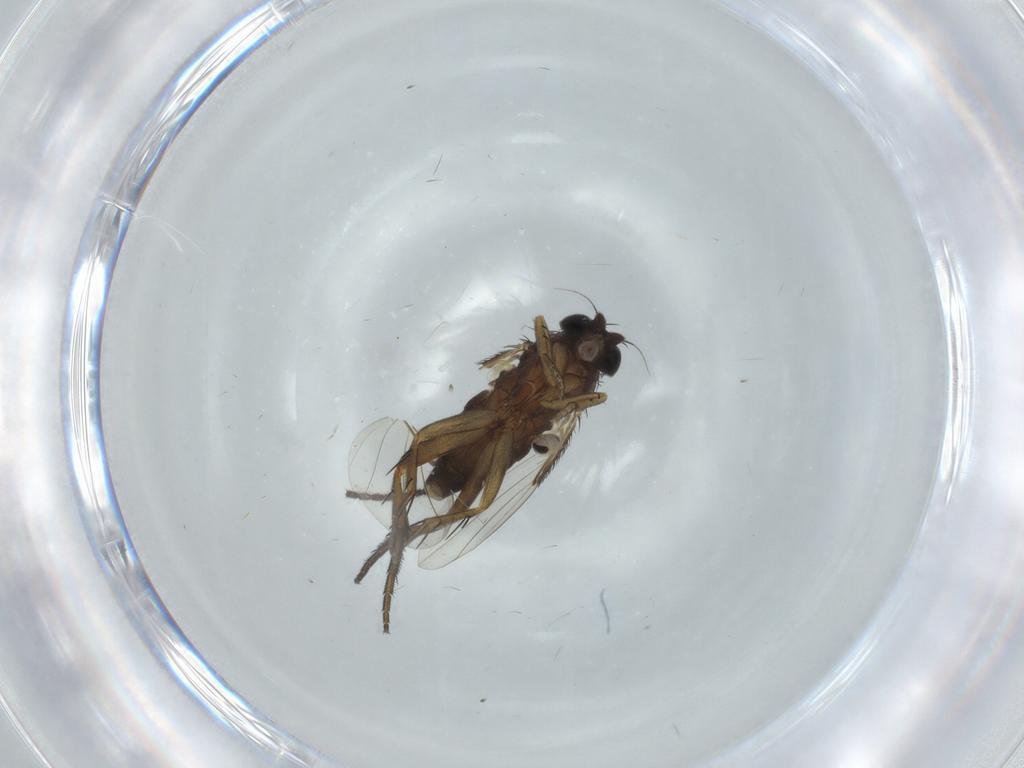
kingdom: Animalia
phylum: Arthropoda
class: Insecta
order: Diptera
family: Phoridae
